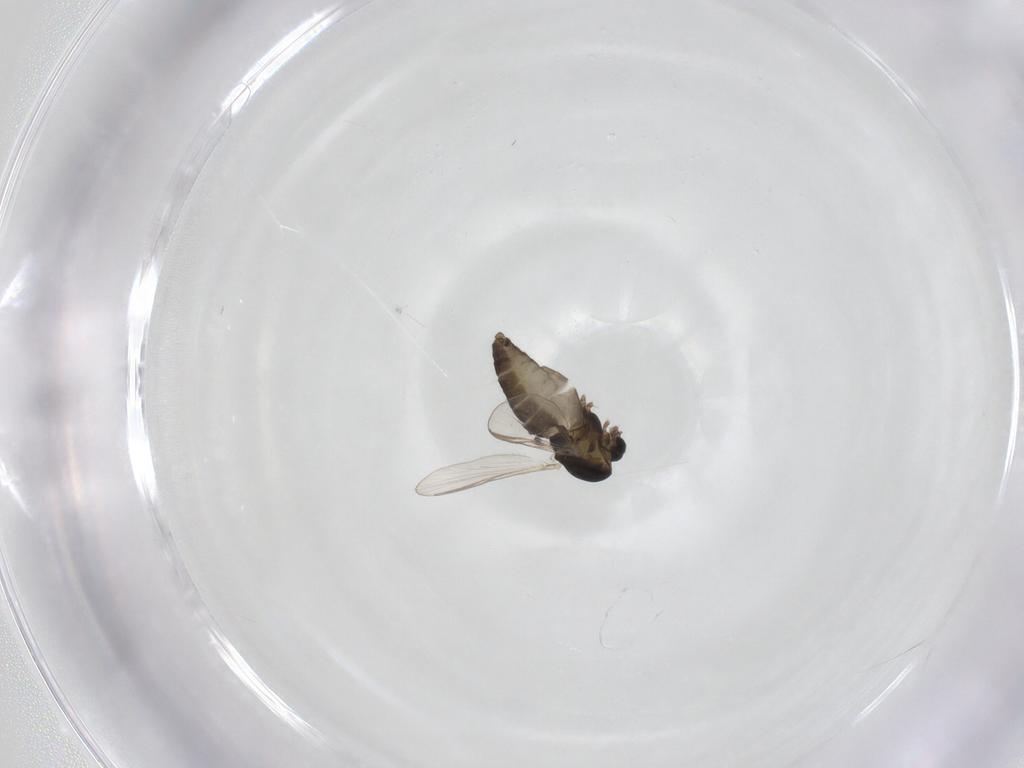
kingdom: Animalia
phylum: Arthropoda
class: Insecta
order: Diptera
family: Chironomidae
